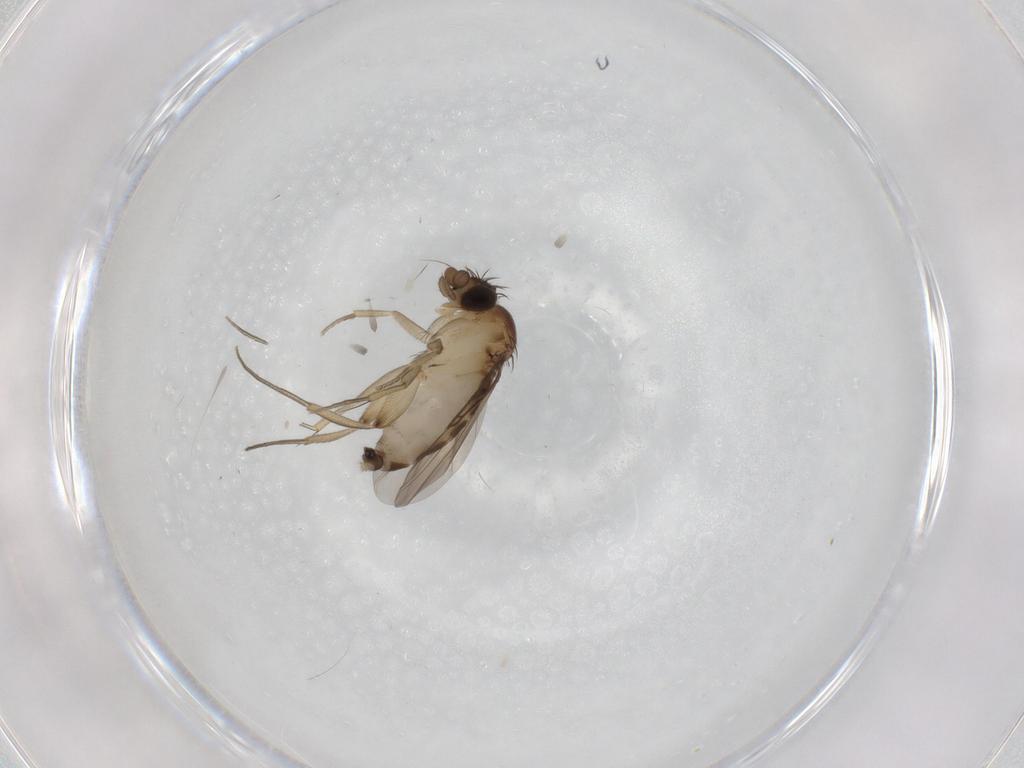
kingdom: Animalia
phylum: Arthropoda
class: Insecta
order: Diptera
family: Phoridae
